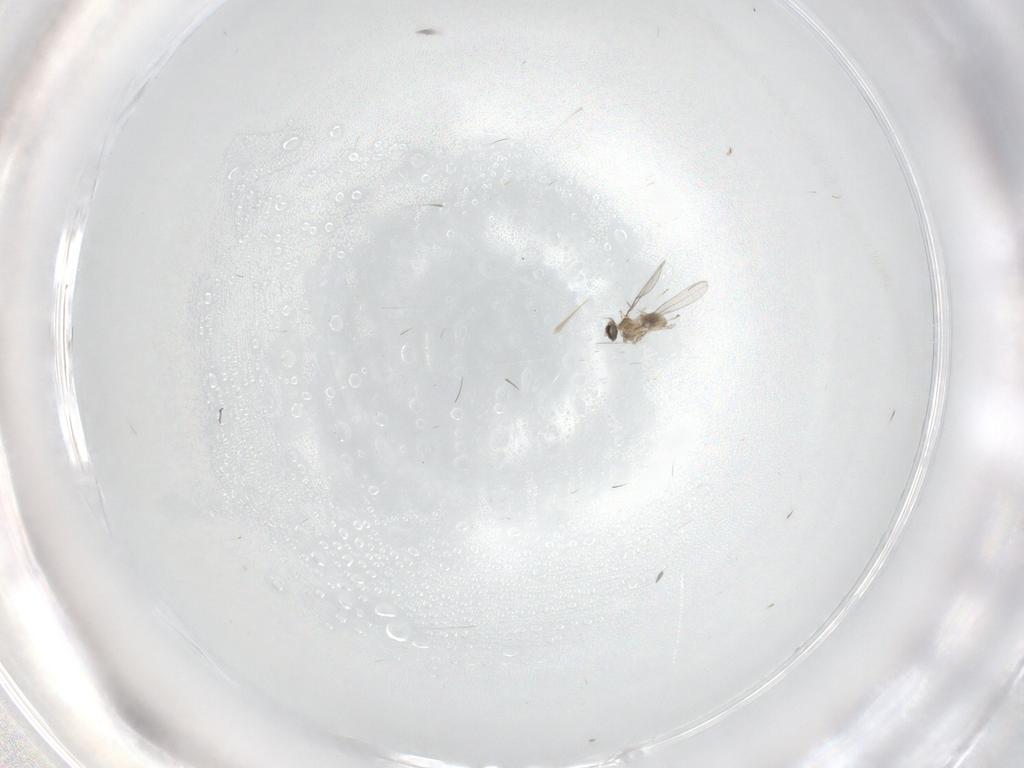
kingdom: Animalia
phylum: Arthropoda
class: Insecta
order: Diptera
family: Cecidomyiidae
